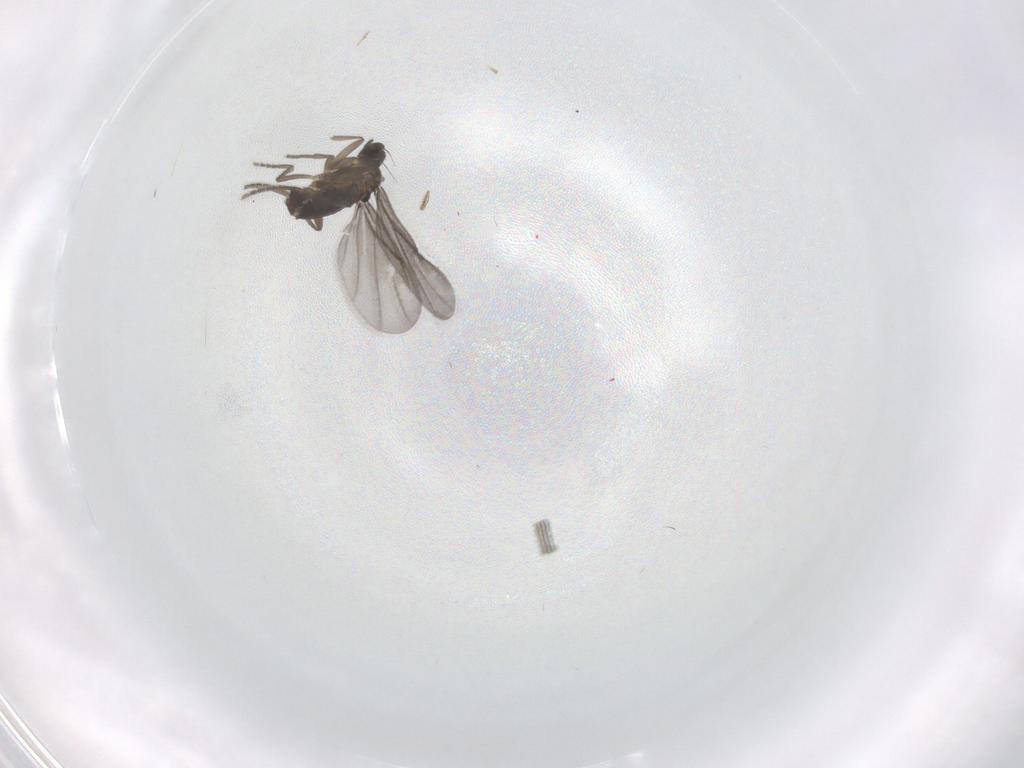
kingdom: Animalia
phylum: Arthropoda
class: Insecta
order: Diptera
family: Phoridae
